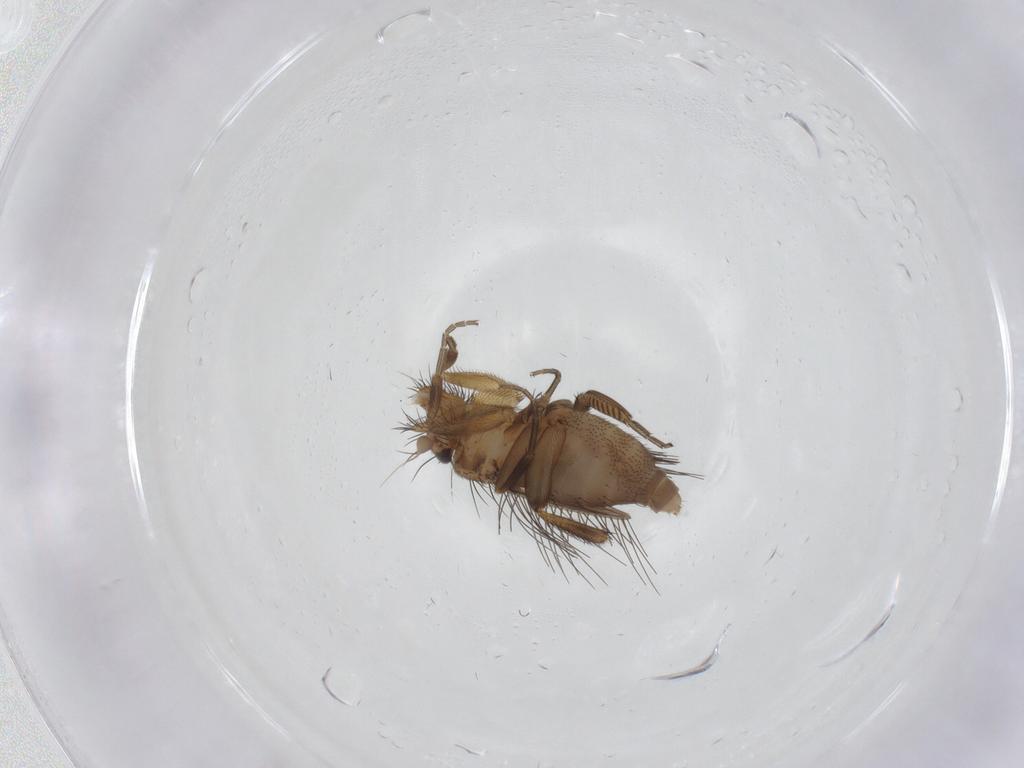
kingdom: Animalia
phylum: Arthropoda
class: Insecta
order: Diptera
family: Phoridae
